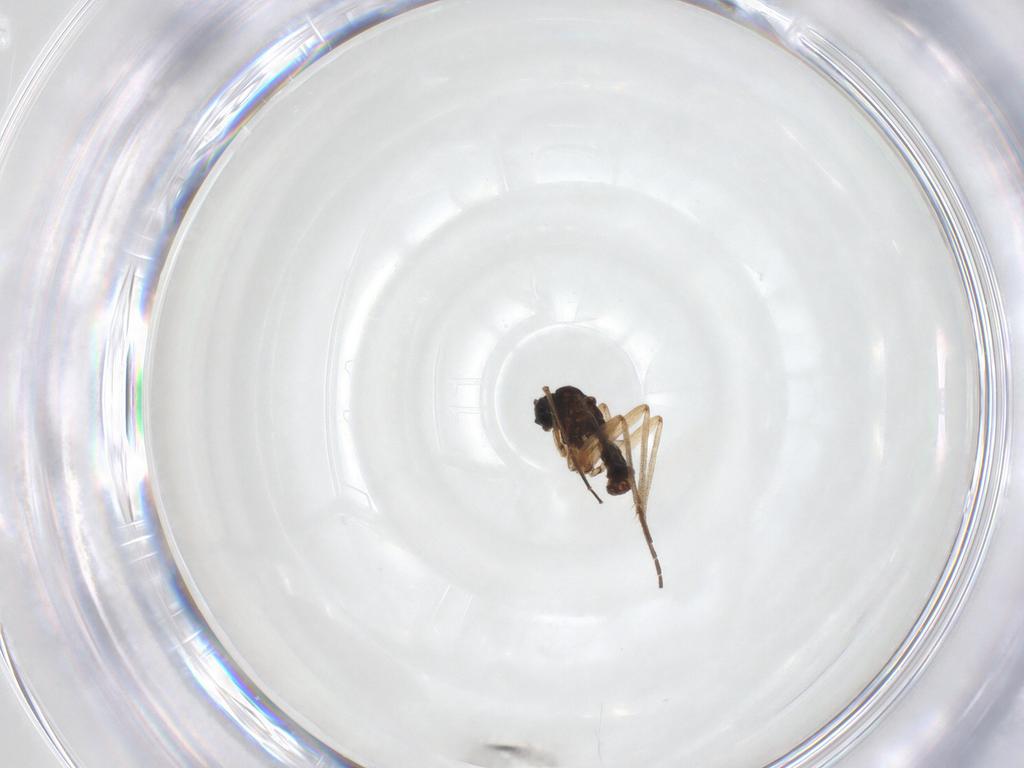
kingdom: Animalia
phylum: Arthropoda
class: Insecta
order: Diptera
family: Sciaridae
